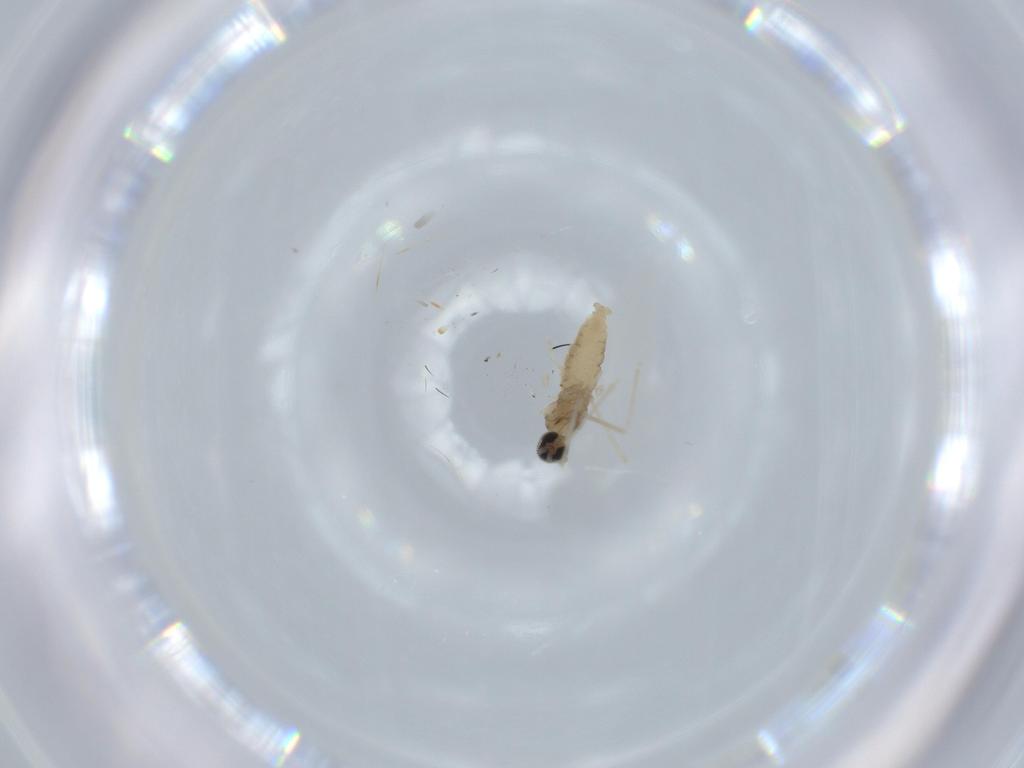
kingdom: Animalia
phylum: Arthropoda
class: Insecta
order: Diptera
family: Cecidomyiidae
